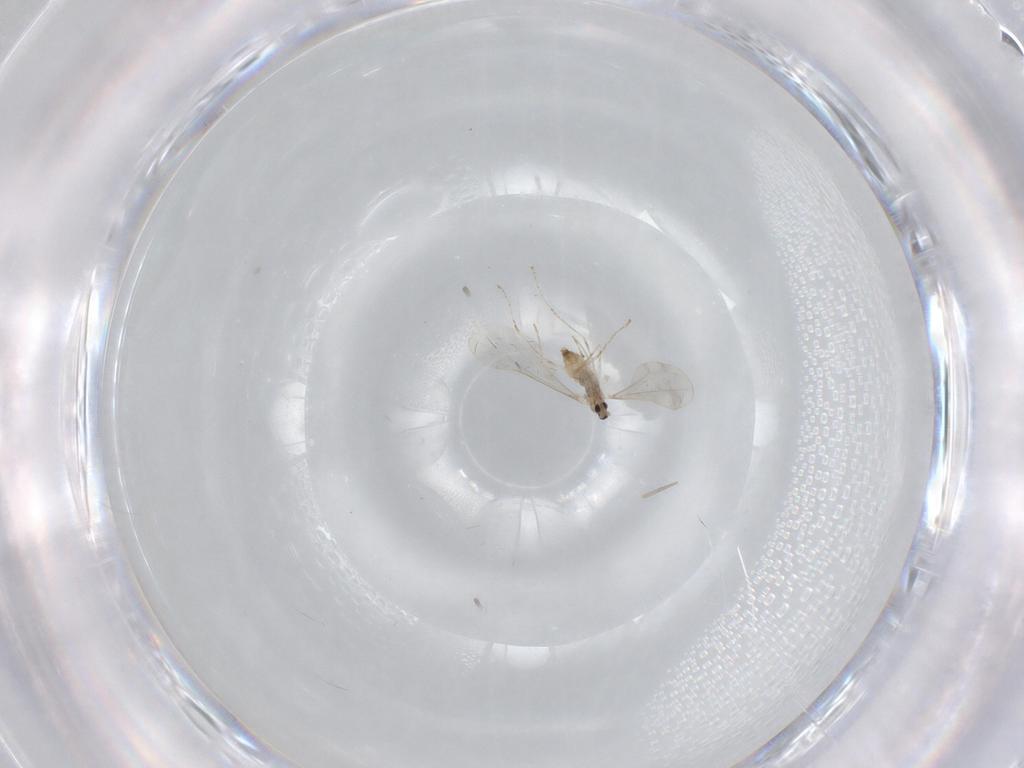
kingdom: Animalia
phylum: Arthropoda
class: Insecta
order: Diptera
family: Cecidomyiidae
